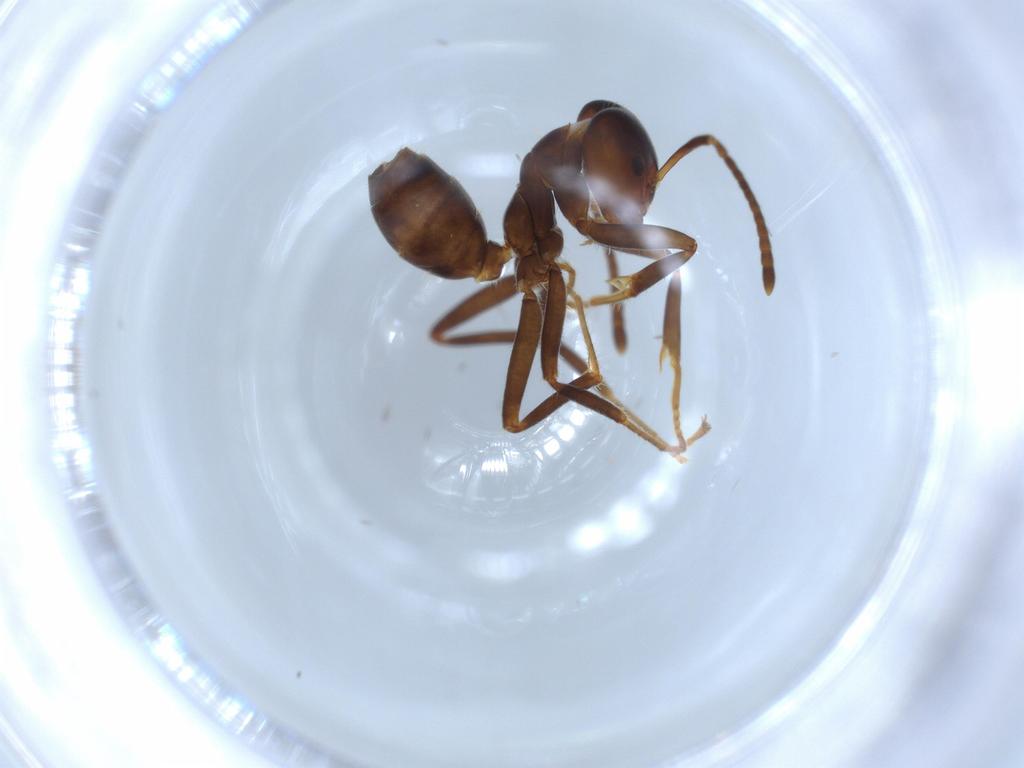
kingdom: Animalia
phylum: Arthropoda
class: Insecta
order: Hymenoptera
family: Formicidae
